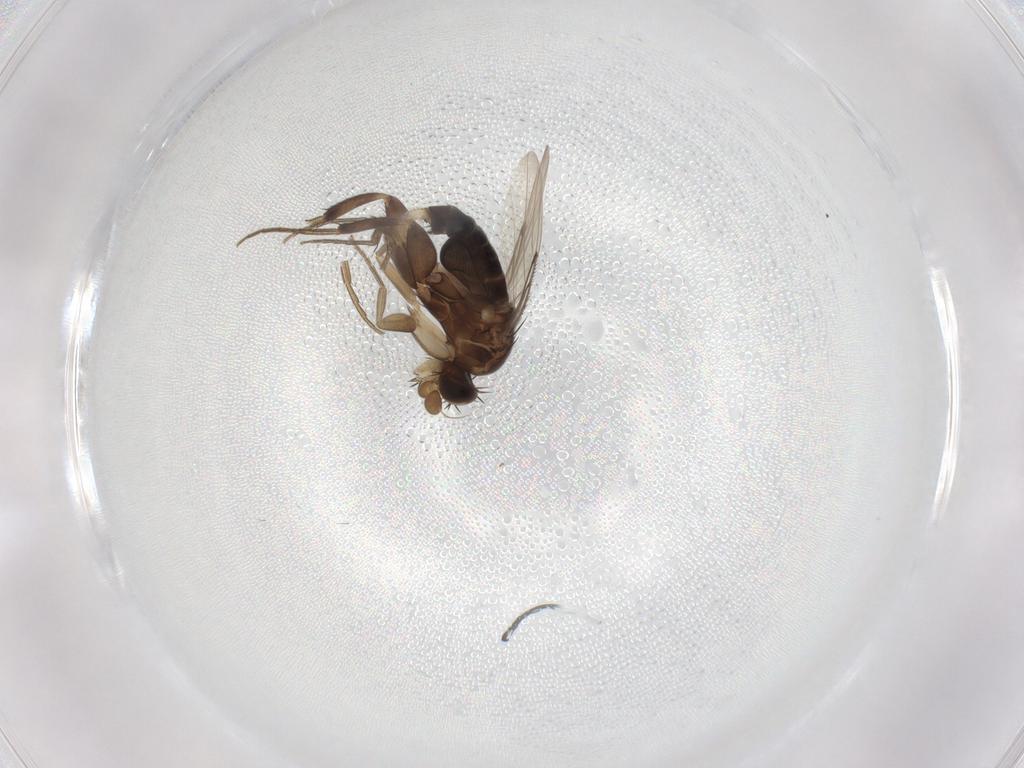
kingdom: Animalia
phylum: Arthropoda
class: Insecta
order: Diptera
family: Phoridae
